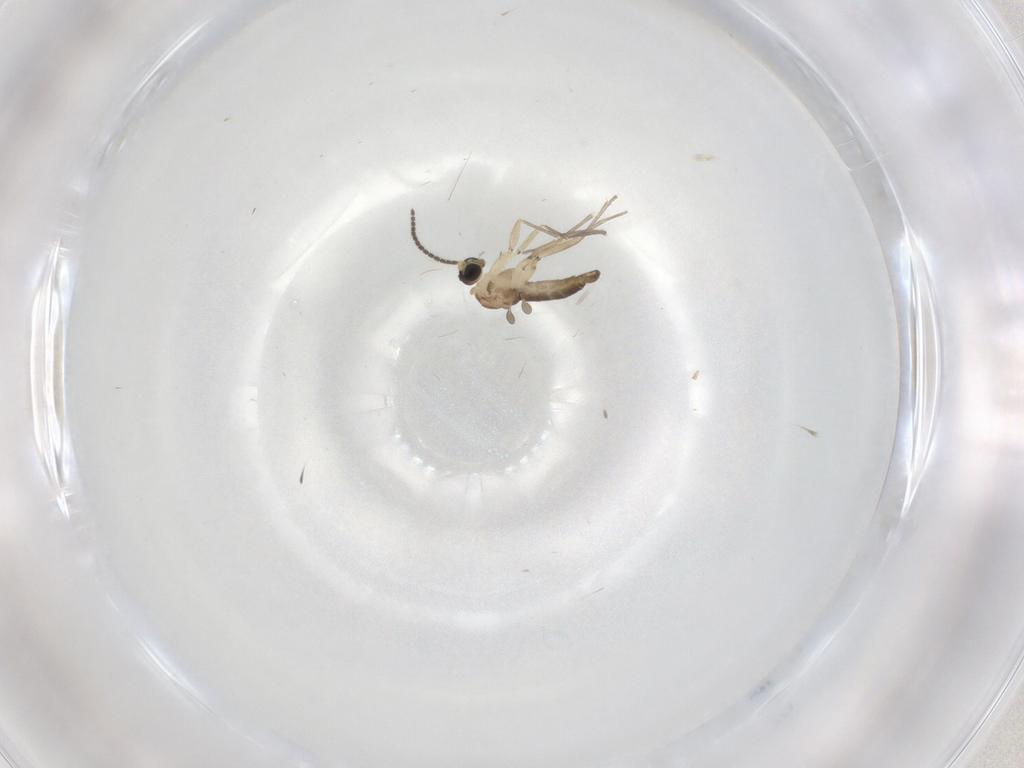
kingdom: Animalia
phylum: Arthropoda
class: Insecta
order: Diptera
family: Sciaridae
